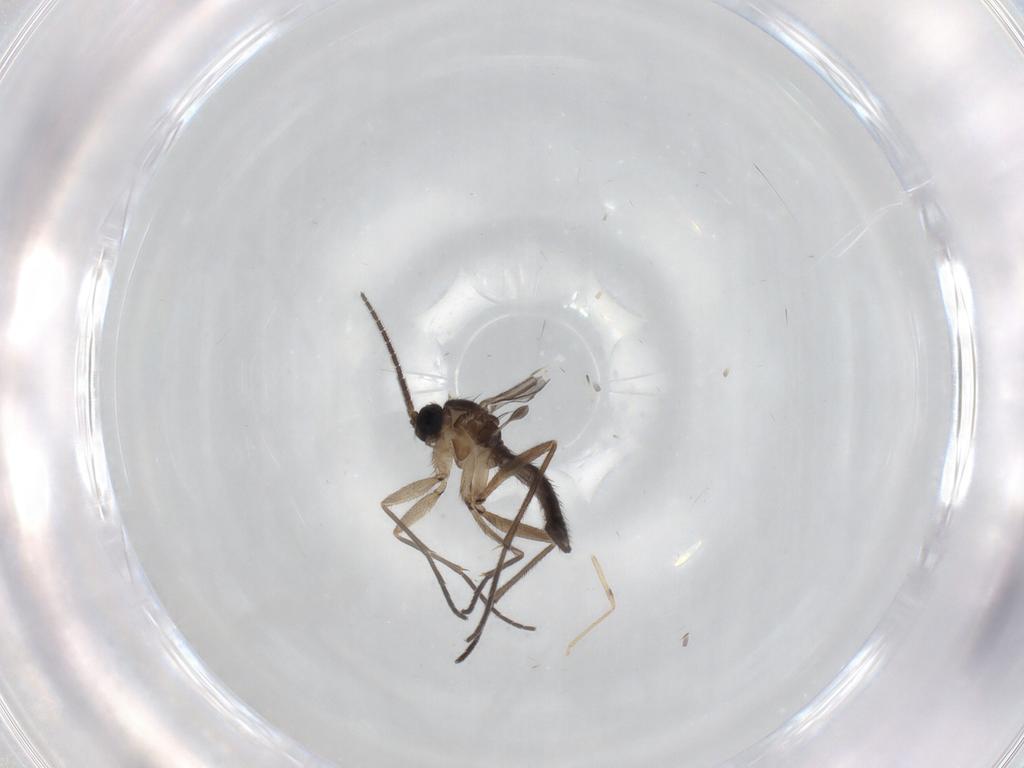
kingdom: Animalia
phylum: Arthropoda
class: Insecta
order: Diptera
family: Sciaridae
